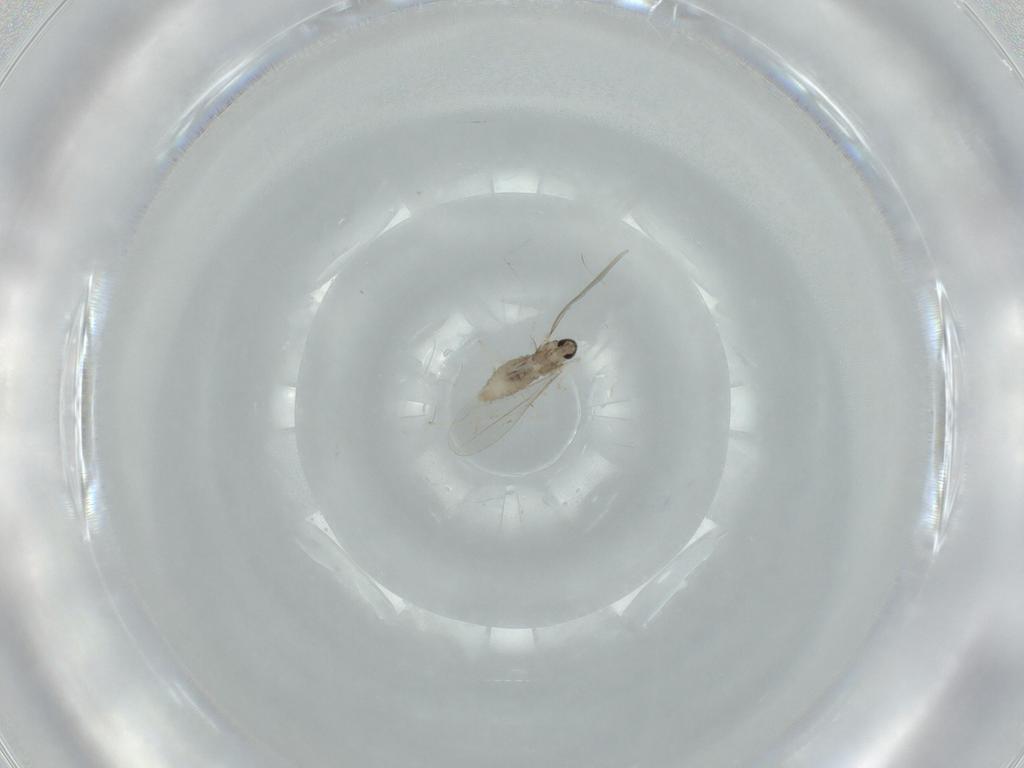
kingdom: Animalia
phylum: Arthropoda
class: Insecta
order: Diptera
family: Cecidomyiidae
